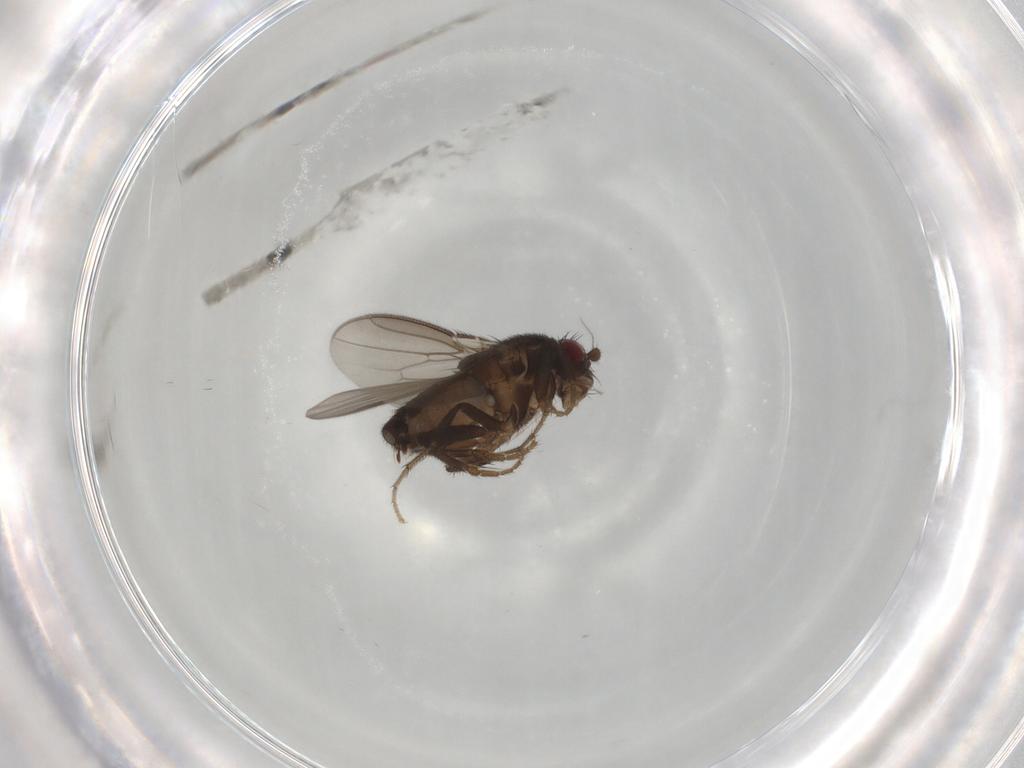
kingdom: Animalia
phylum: Arthropoda
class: Insecta
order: Diptera
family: Sphaeroceridae
